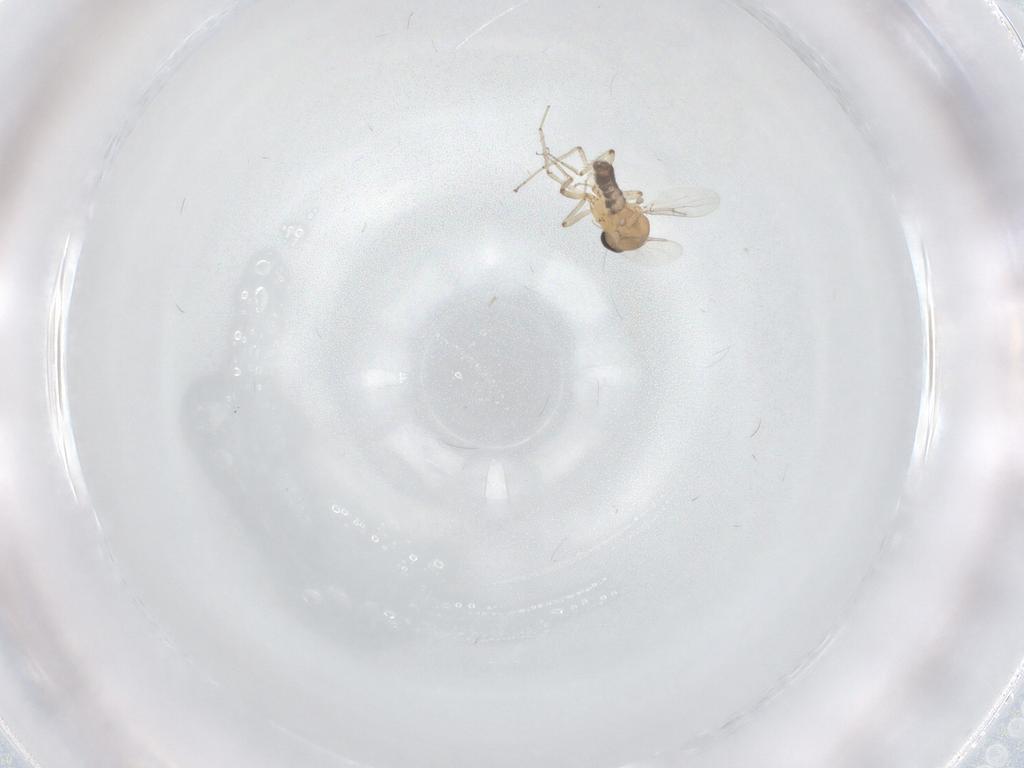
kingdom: Animalia
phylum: Arthropoda
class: Insecta
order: Diptera
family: Ceratopogonidae
